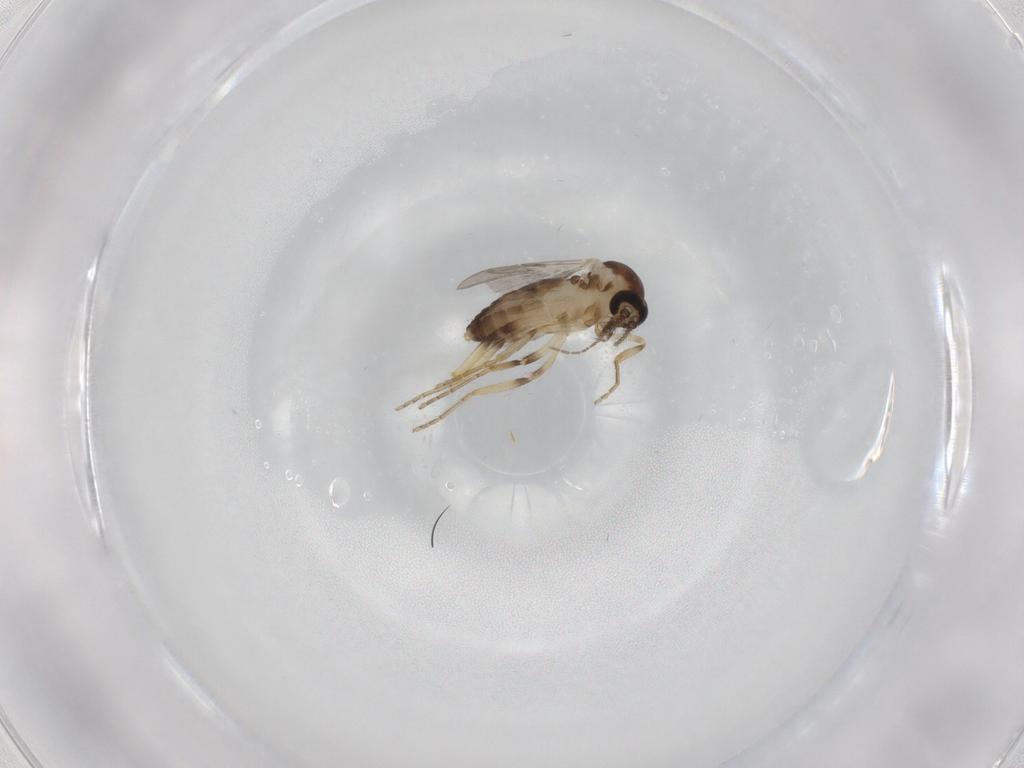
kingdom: Animalia
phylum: Arthropoda
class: Insecta
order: Diptera
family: Ceratopogonidae
